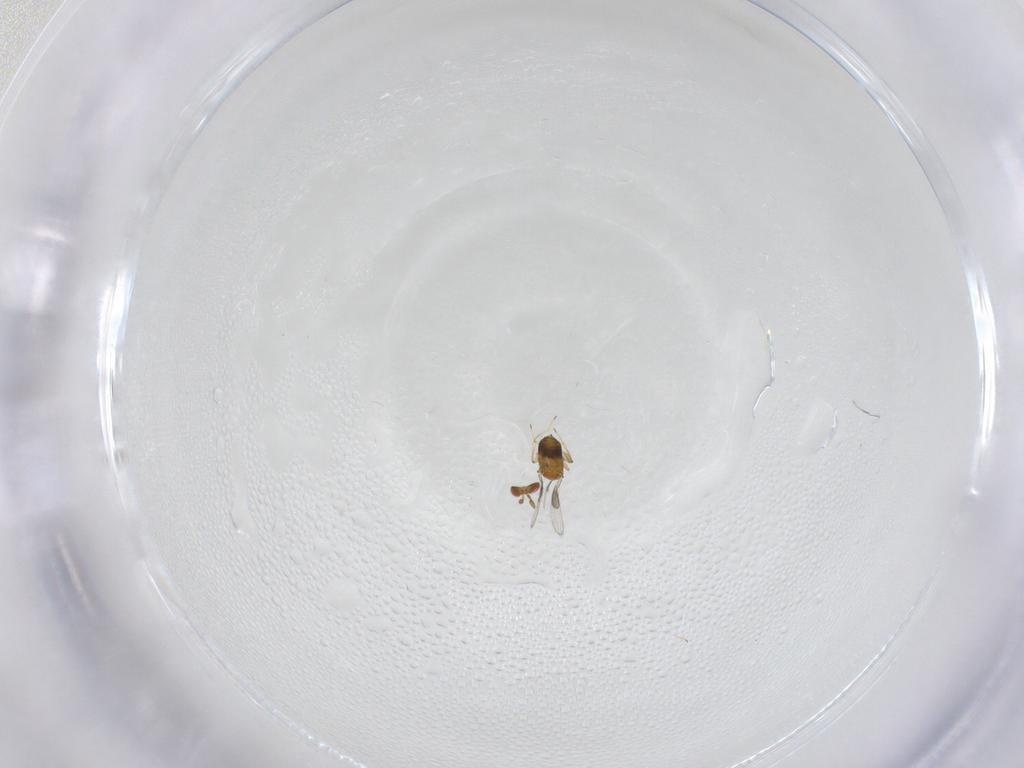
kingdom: Animalia
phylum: Arthropoda
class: Insecta
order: Hymenoptera
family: Trichogrammatidae
